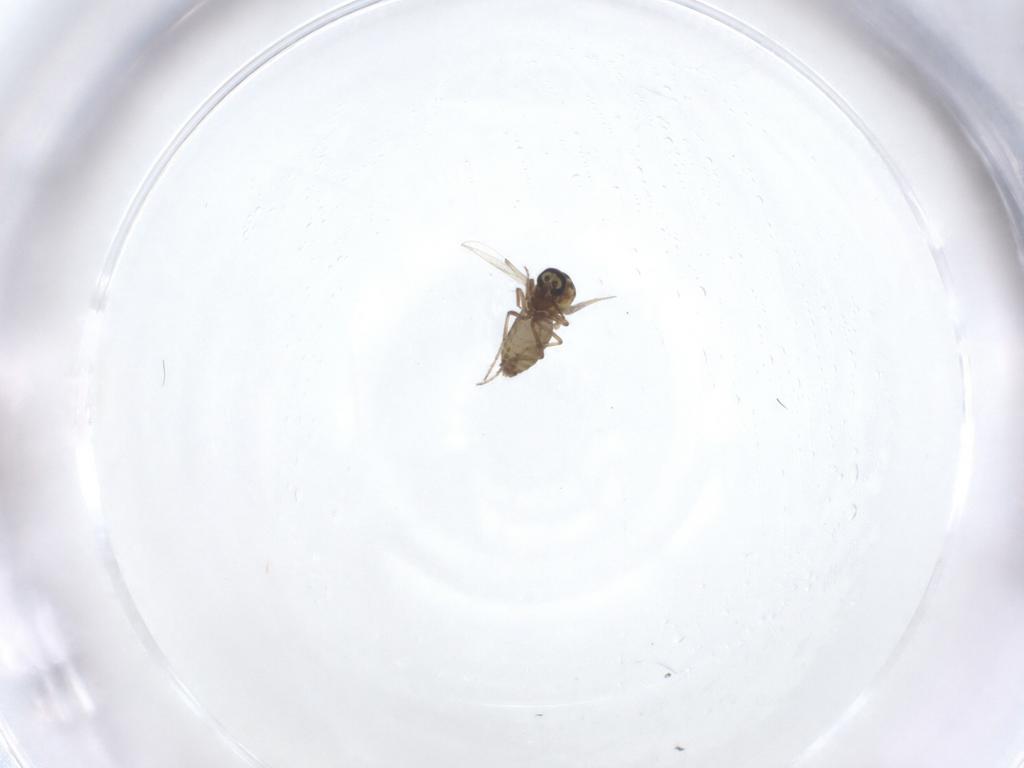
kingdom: Animalia
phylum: Arthropoda
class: Insecta
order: Diptera
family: Ceratopogonidae
